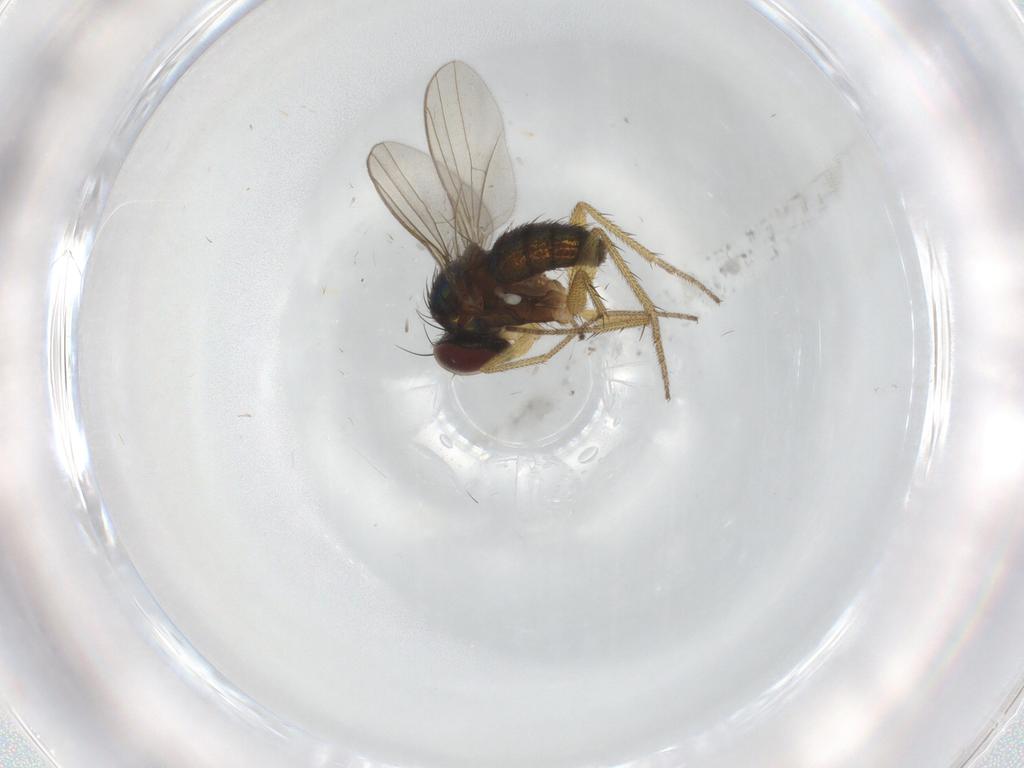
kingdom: Animalia
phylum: Arthropoda
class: Insecta
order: Diptera
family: Dolichopodidae
